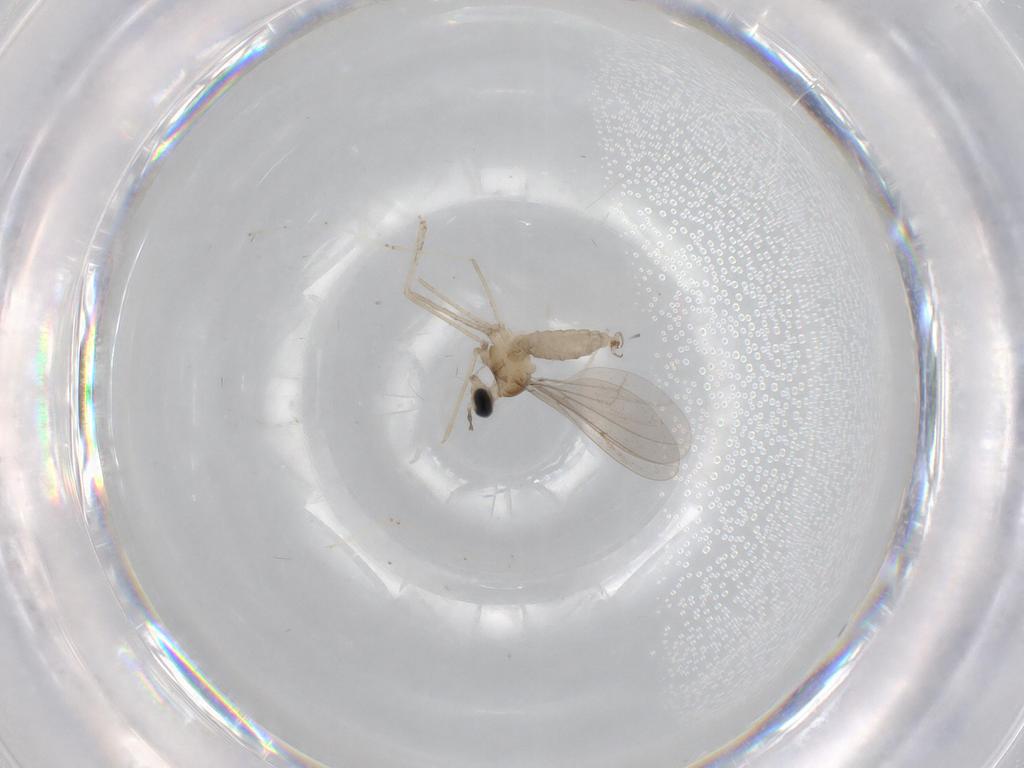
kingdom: Animalia
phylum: Arthropoda
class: Insecta
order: Diptera
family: Cecidomyiidae
